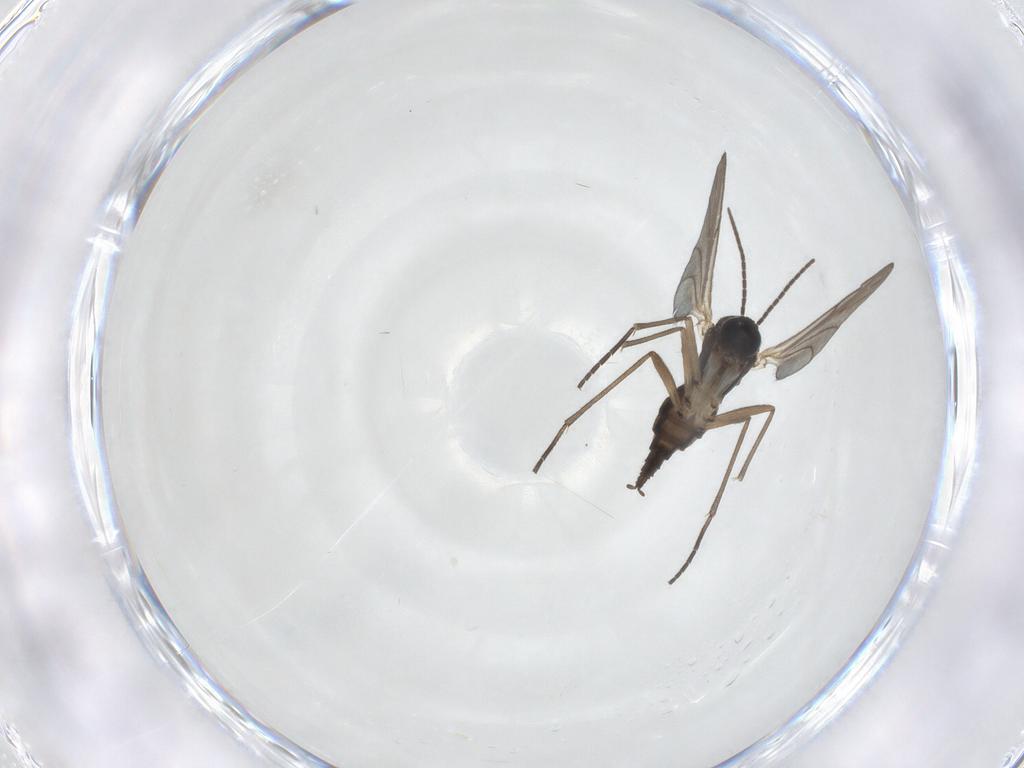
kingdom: Animalia
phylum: Arthropoda
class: Insecta
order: Diptera
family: Sciaridae
